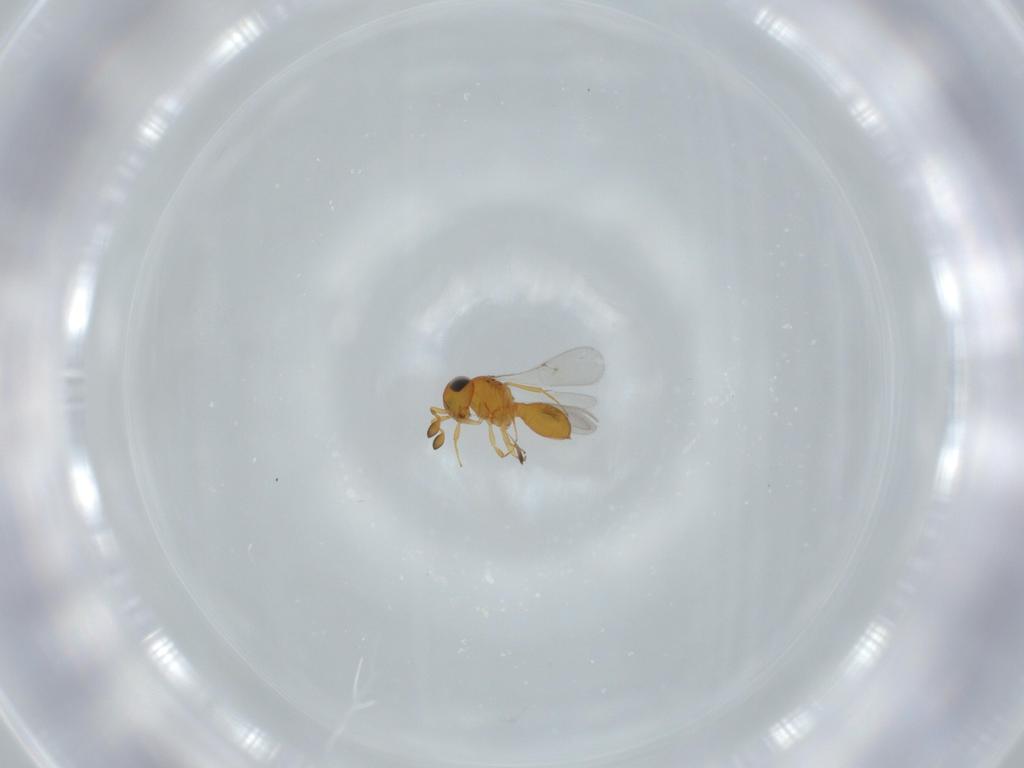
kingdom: Animalia
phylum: Arthropoda
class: Insecta
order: Hymenoptera
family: Scelionidae
